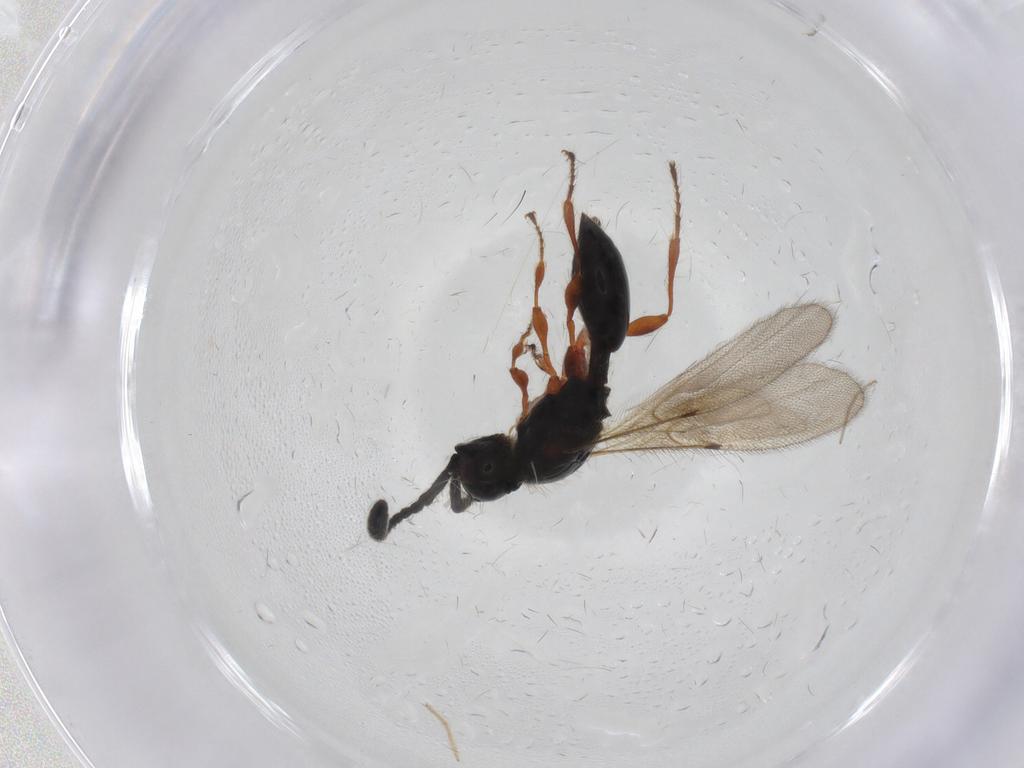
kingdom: Animalia
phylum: Arthropoda
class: Insecta
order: Hymenoptera
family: Diapriidae
